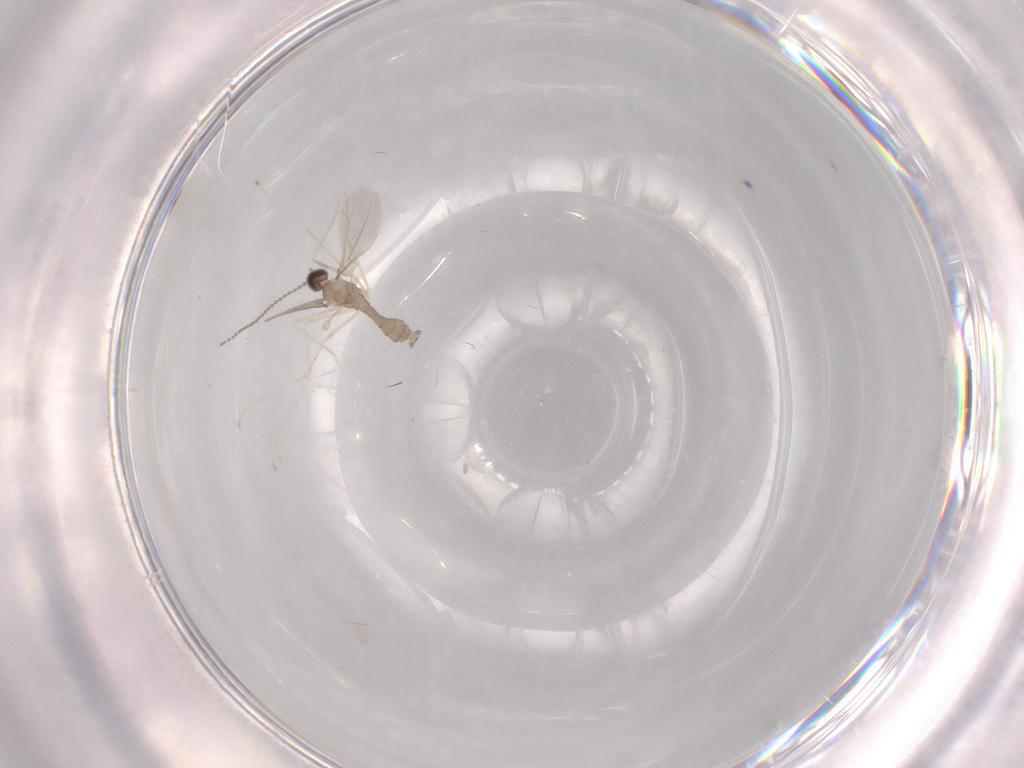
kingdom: Animalia
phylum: Arthropoda
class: Insecta
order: Diptera
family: Cecidomyiidae
